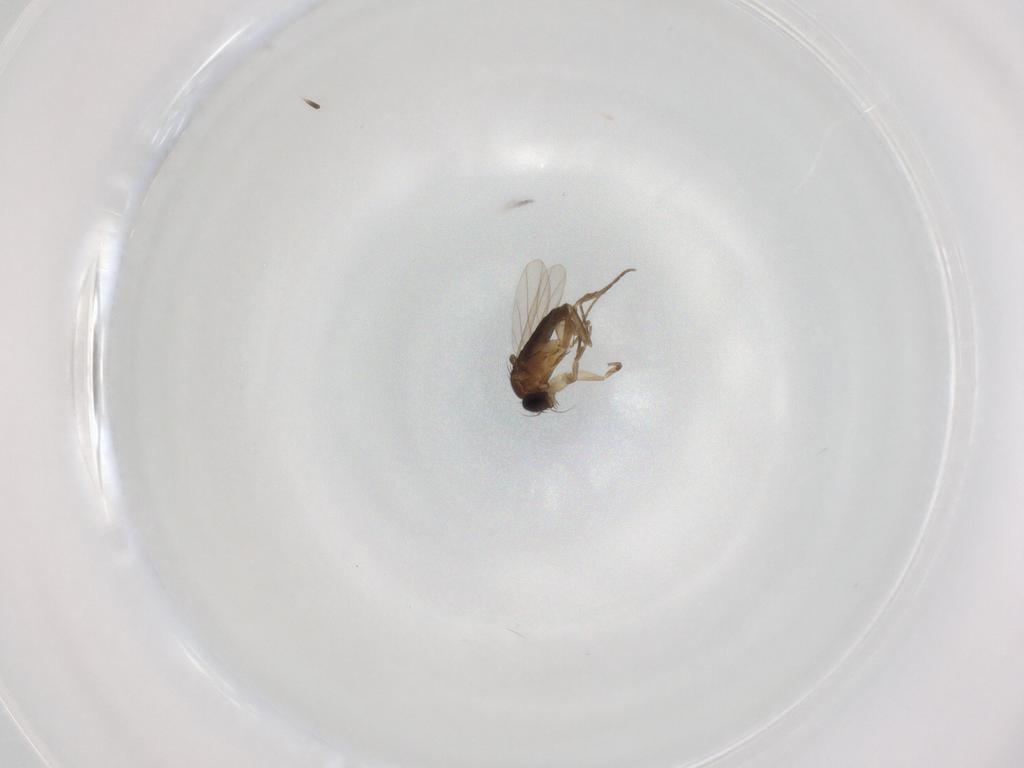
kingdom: Animalia
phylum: Arthropoda
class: Insecta
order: Diptera
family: Phoridae
